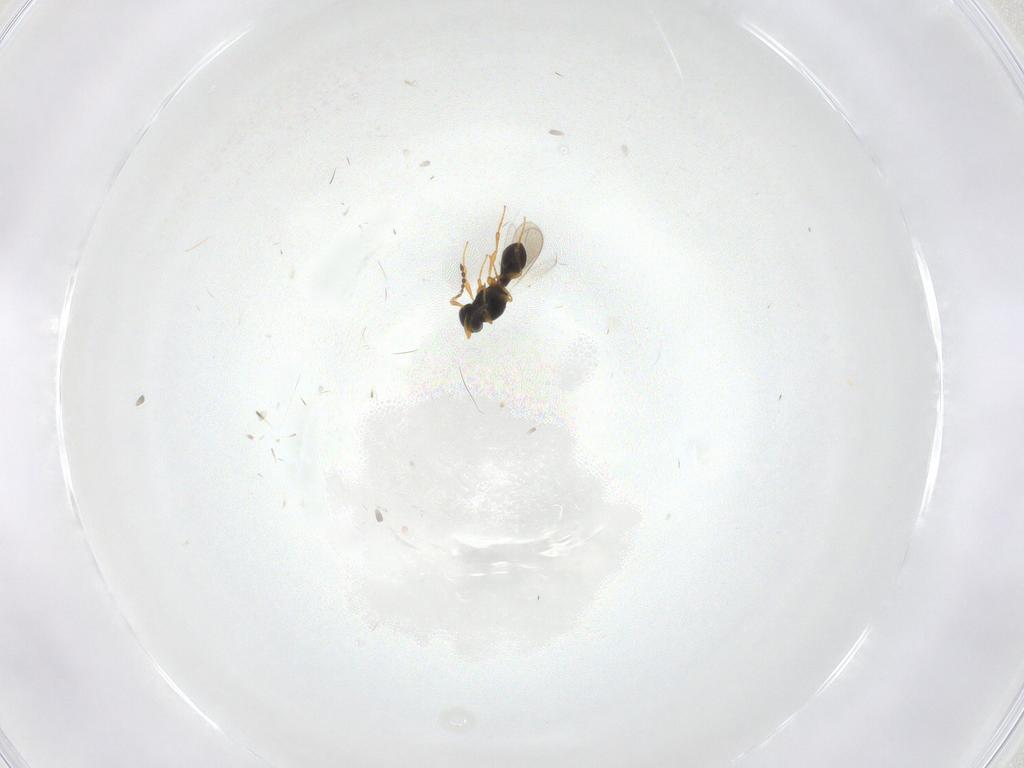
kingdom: Animalia
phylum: Arthropoda
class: Insecta
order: Hymenoptera
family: Platygastridae
